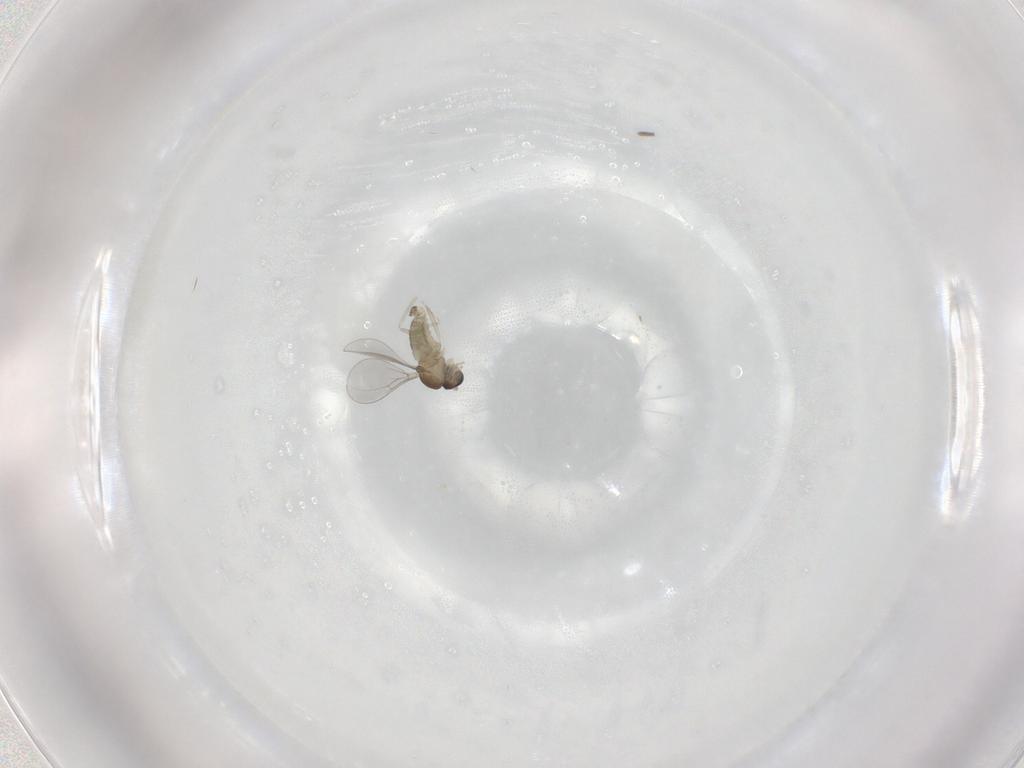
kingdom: Animalia
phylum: Arthropoda
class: Insecta
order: Diptera
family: Cecidomyiidae
